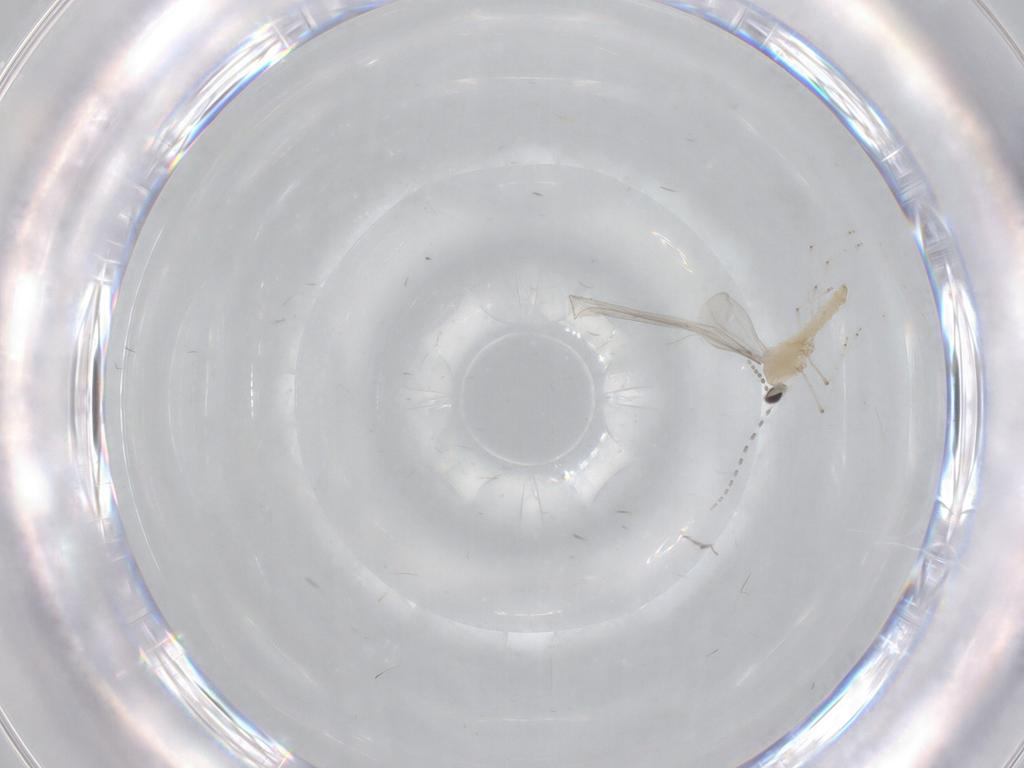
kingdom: Animalia
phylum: Arthropoda
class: Insecta
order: Diptera
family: Cecidomyiidae
